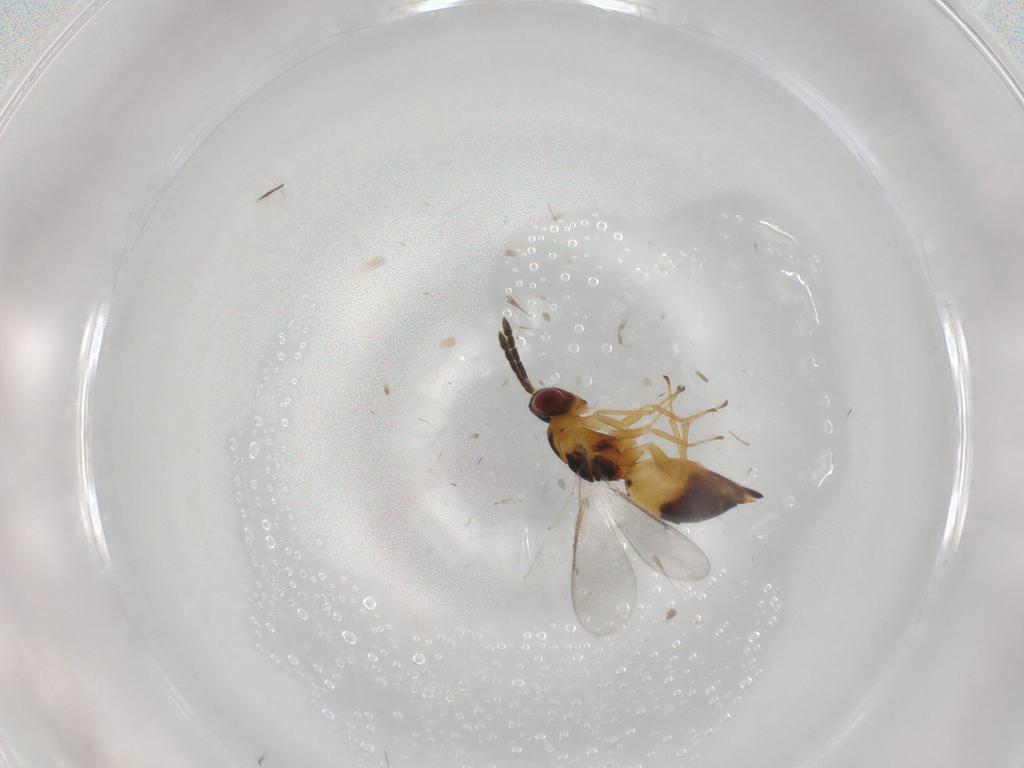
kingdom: Animalia
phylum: Arthropoda
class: Insecta
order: Hymenoptera
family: Eulophidae
